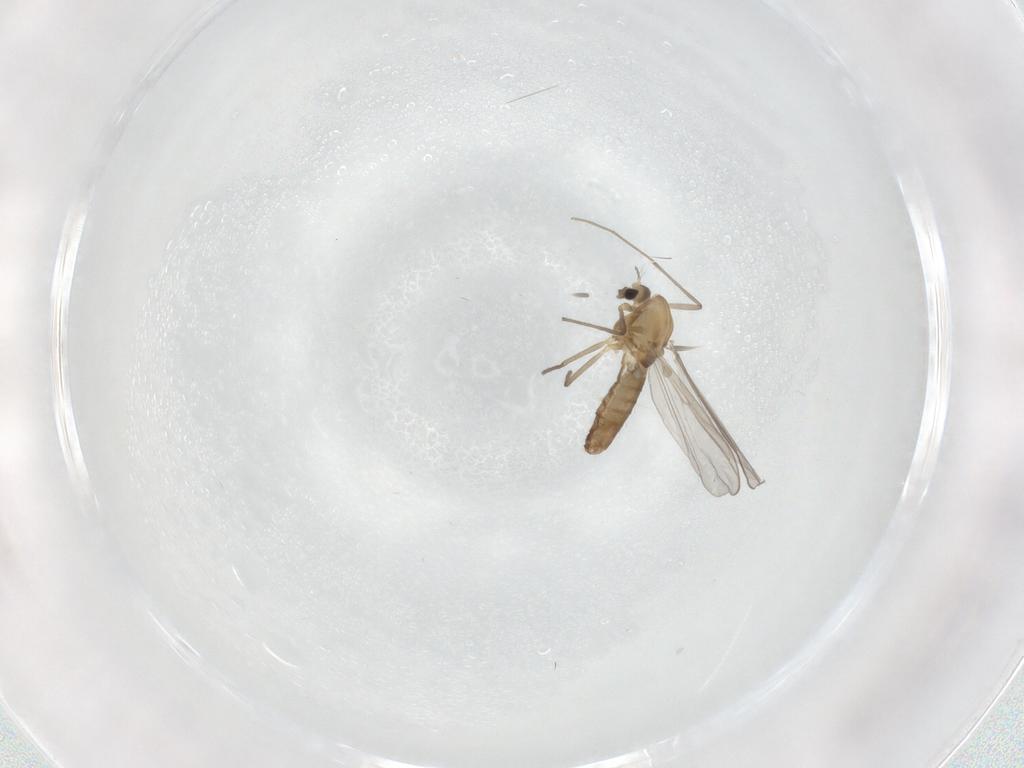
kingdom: Animalia
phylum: Arthropoda
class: Insecta
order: Diptera
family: Chironomidae
